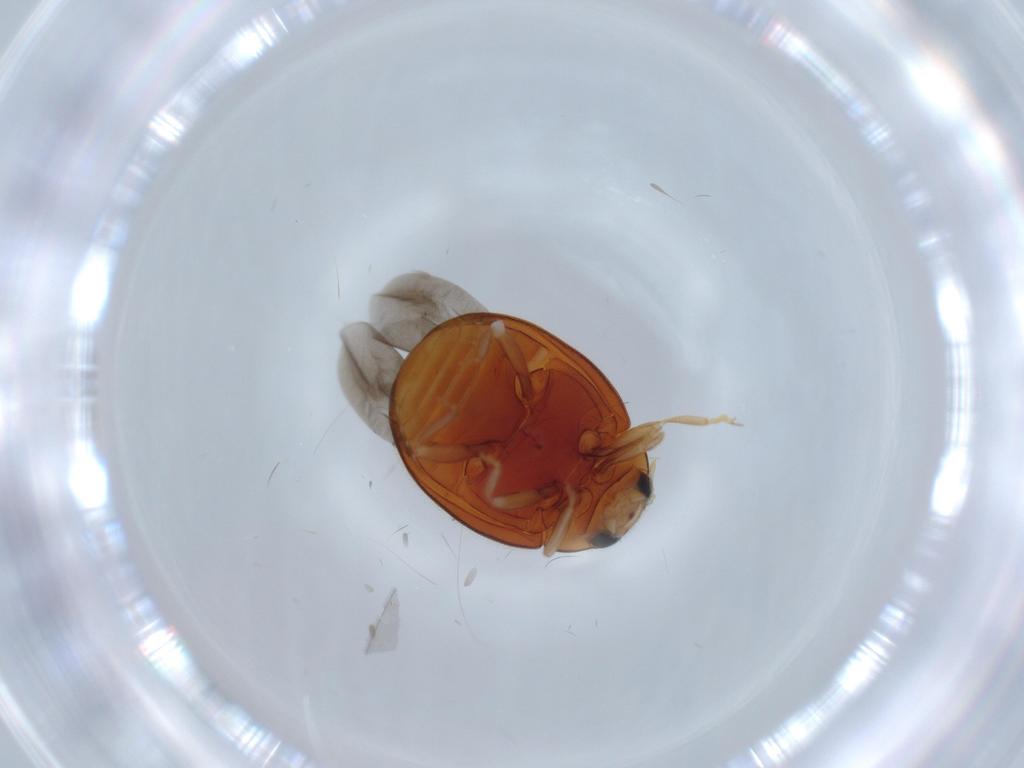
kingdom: Animalia
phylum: Arthropoda
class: Insecta
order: Coleoptera
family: Coccinellidae
